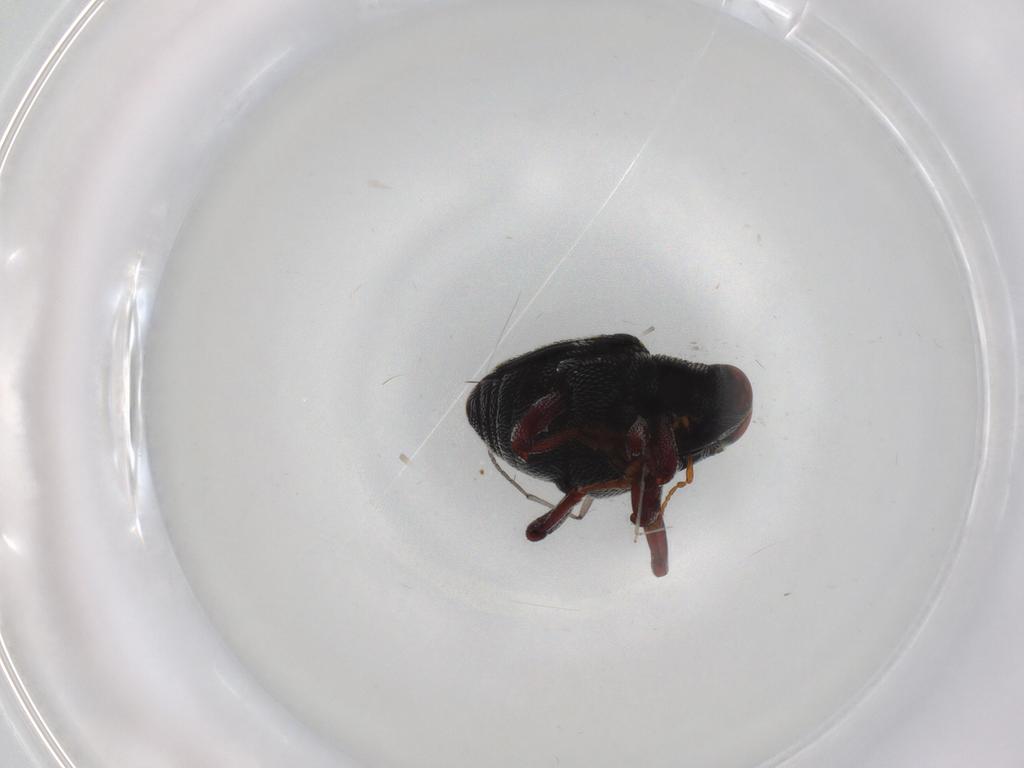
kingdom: Animalia
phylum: Arthropoda
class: Insecta
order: Coleoptera
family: Curculionidae
